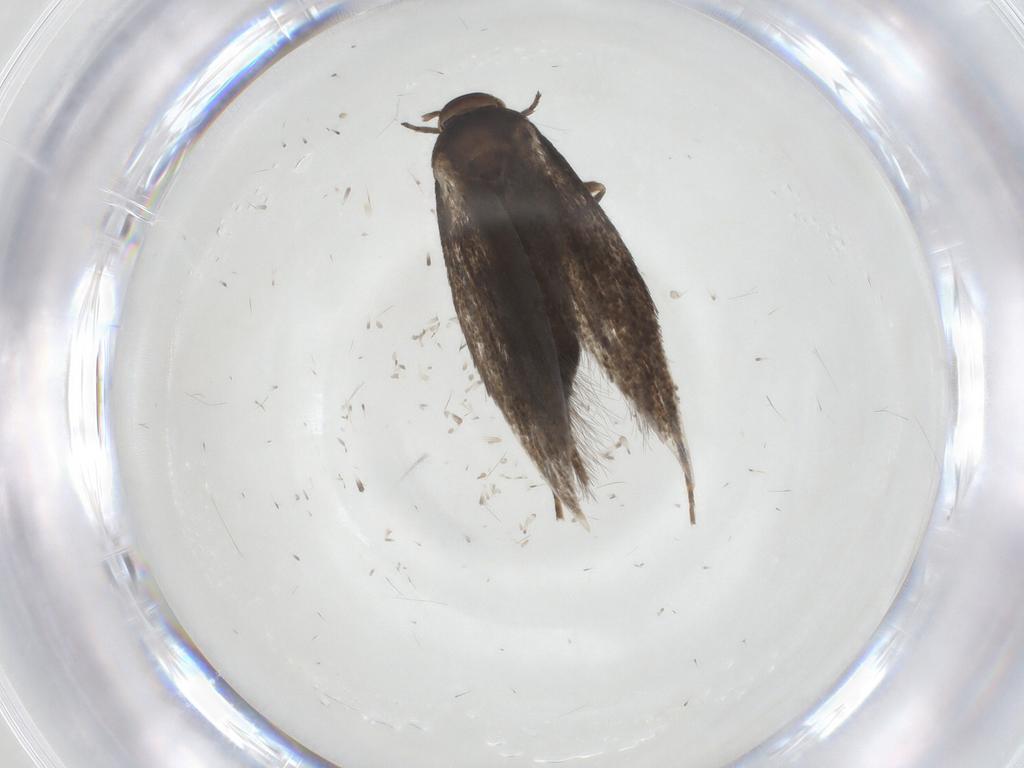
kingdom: Animalia
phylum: Arthropoda
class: Insecta
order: Lepidoptera
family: Elachistidae
